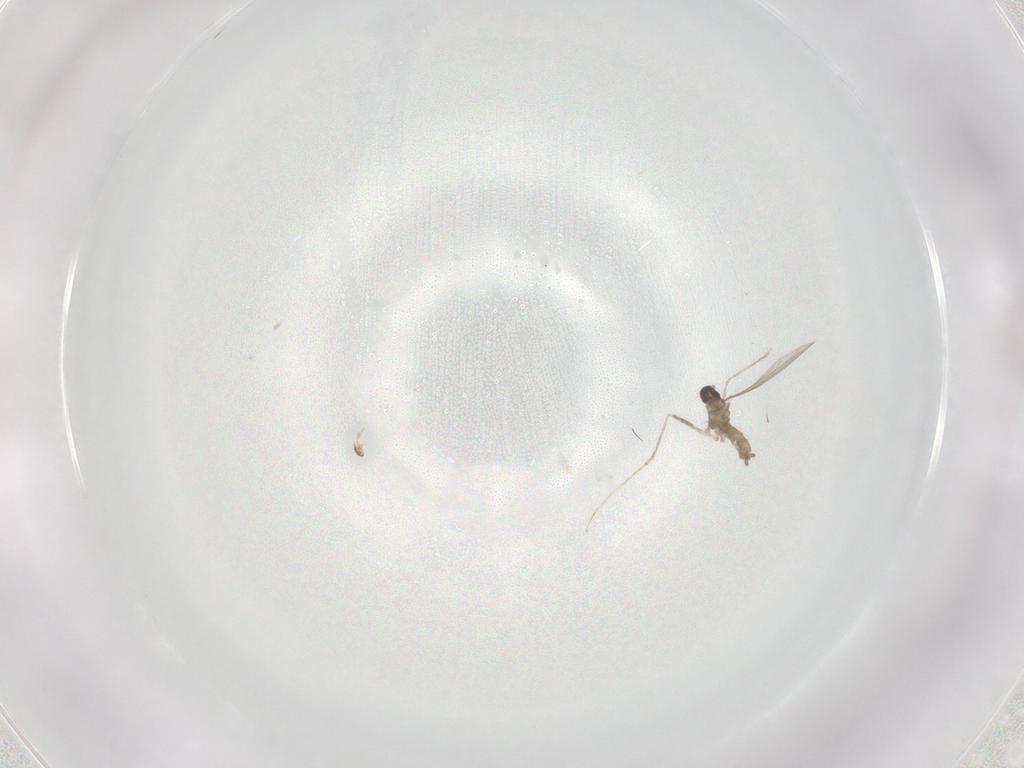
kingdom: Animalia
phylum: Arthropoda
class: Insecta
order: Diptera
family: Cecidomyiidae
